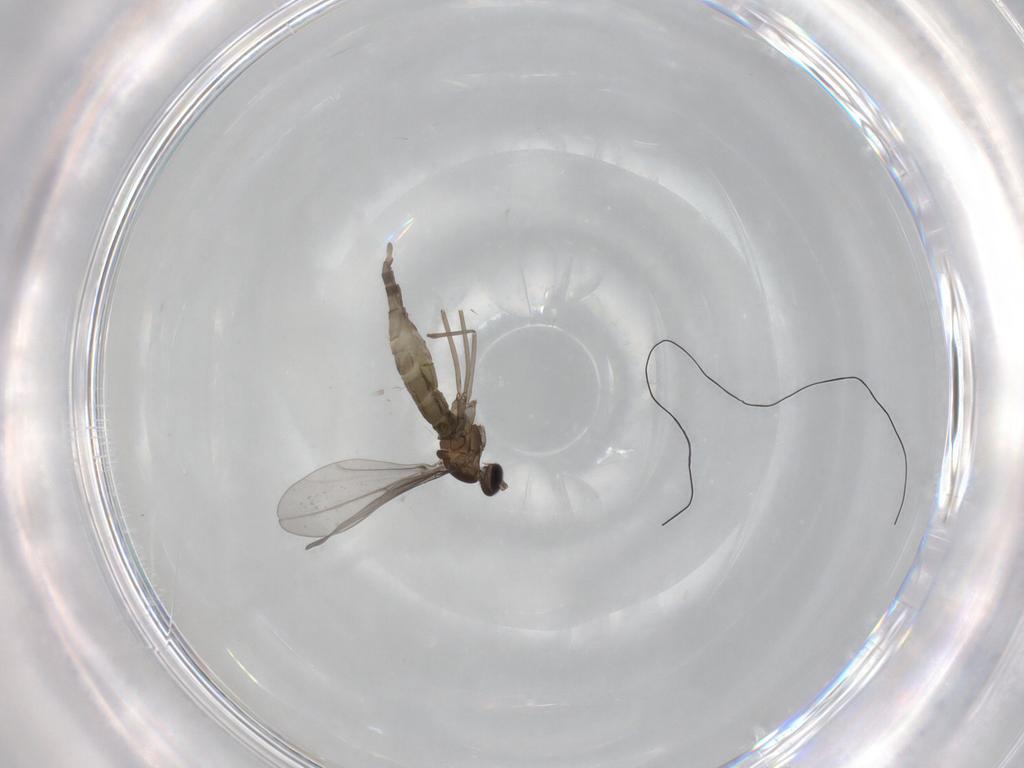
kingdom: Animalia
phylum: Arthropoda
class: Insecta
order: Diptera
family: Cecidomyiidae
